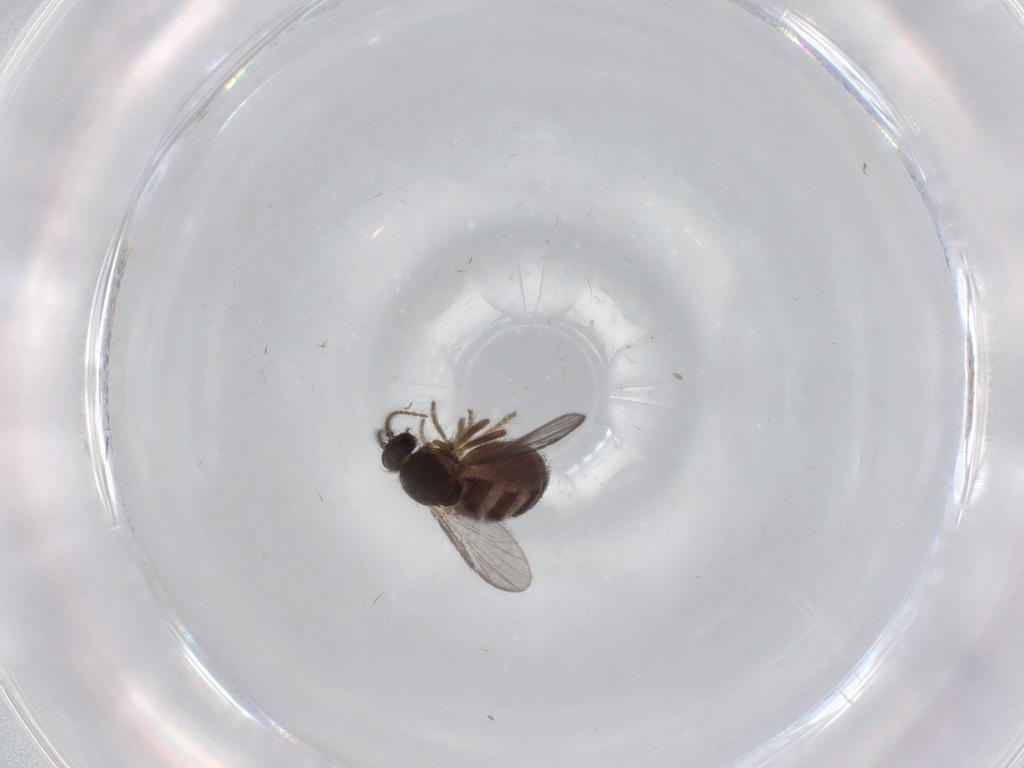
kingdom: Animalia
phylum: Arthropoda
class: Insecta
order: Diptera
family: Ceratopogonidae
